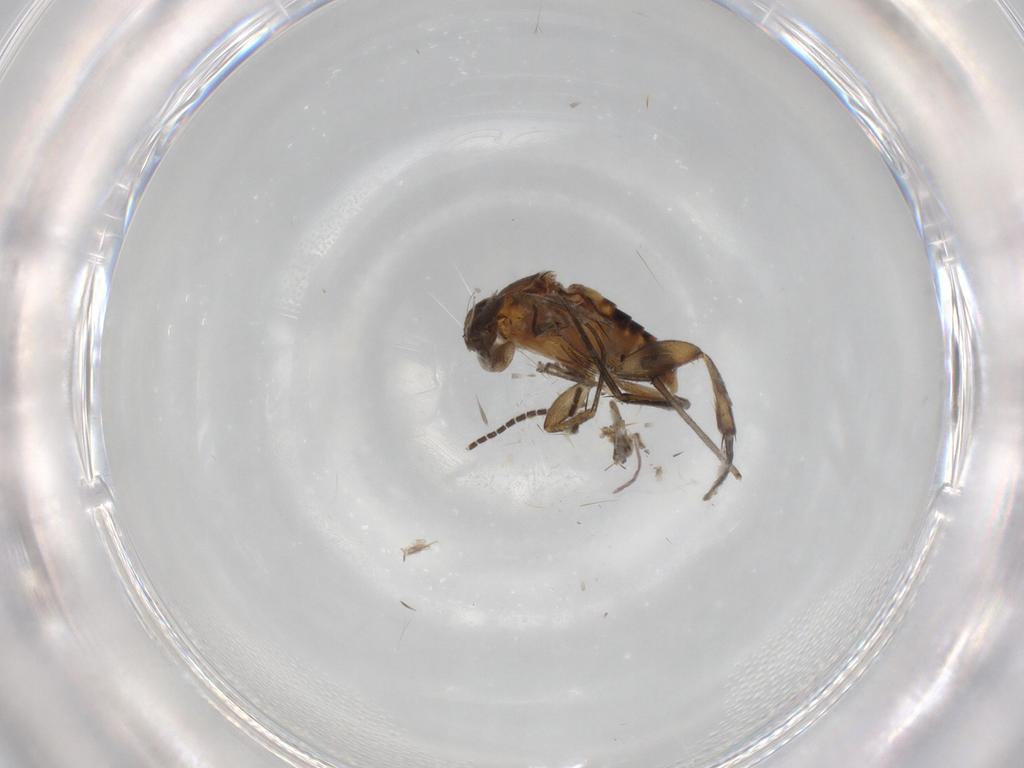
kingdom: Animalia
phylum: Arthropoda
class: Insecta
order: Diptera
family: Sciaridae
